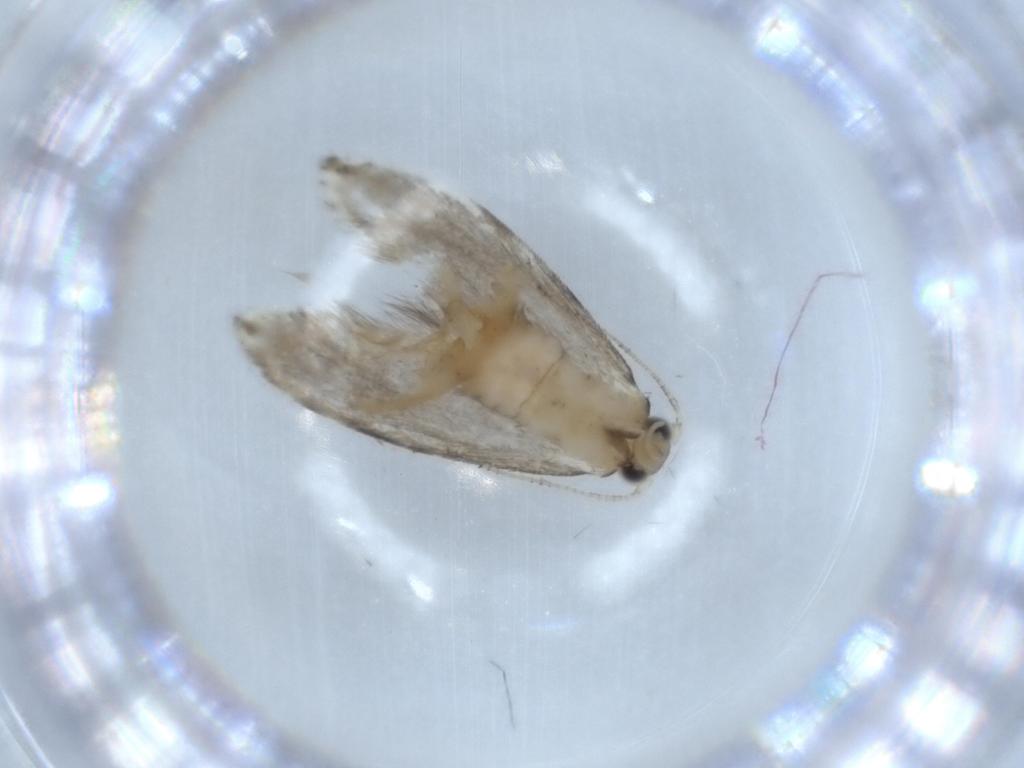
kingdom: Animalia
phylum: Arthropoda
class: Insecta
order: Lepidoptera
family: Tineidae
